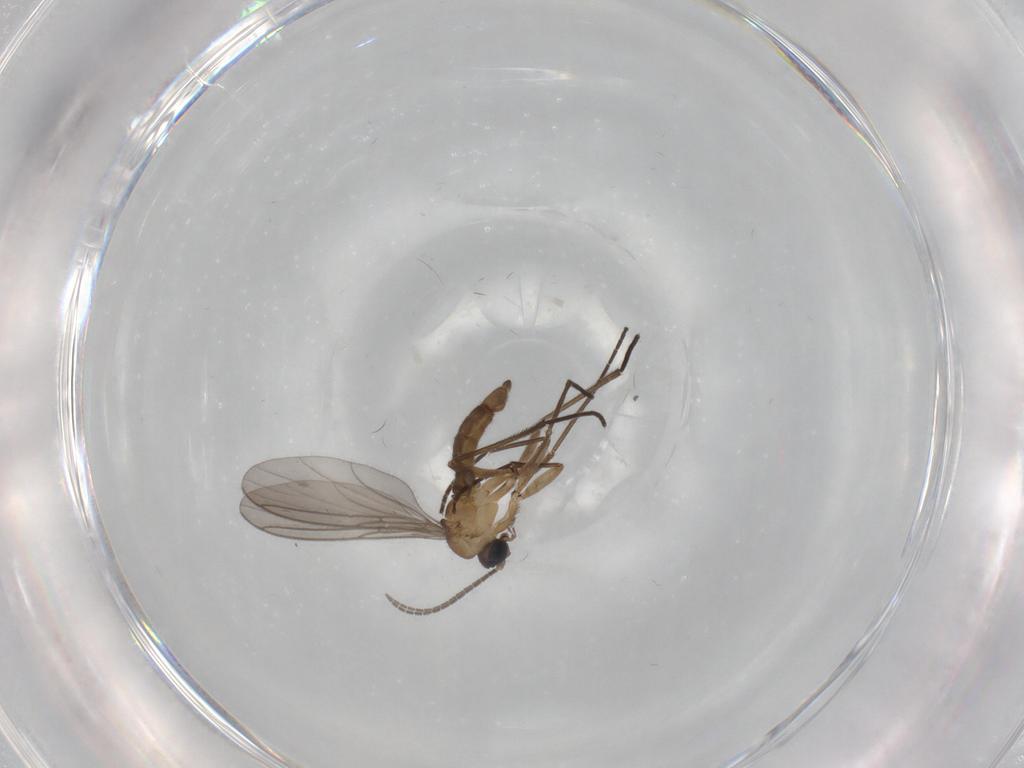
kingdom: Animalia
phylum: Arthropoda
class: Insecta
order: Diptera
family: Sciaridae
